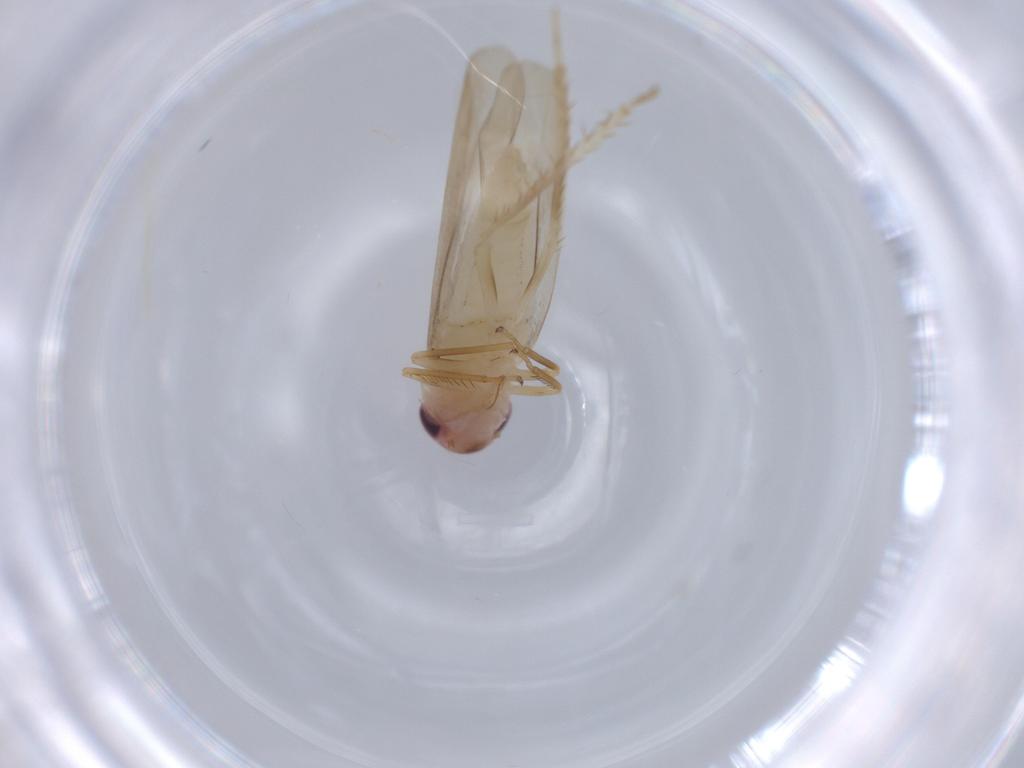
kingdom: Animalia
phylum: Arthropoda
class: Insecta
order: Hemiptera
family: Cicadellidae
